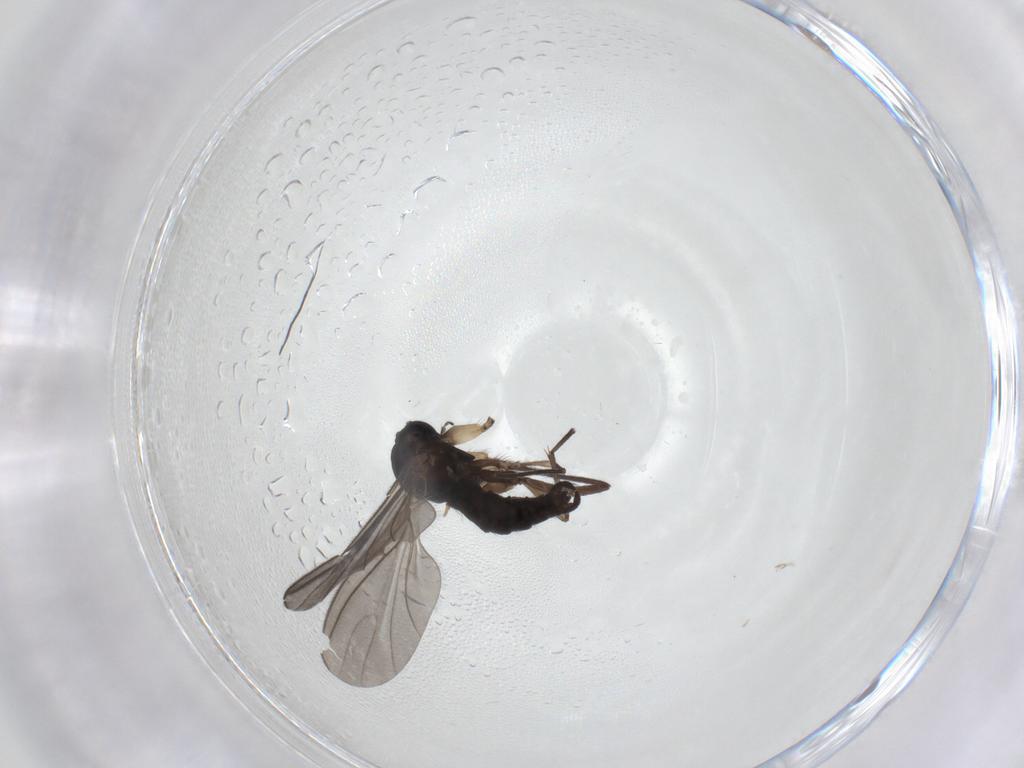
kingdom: Animalia
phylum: Arthropoda
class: Insecta
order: Diptera
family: Sciaridae
